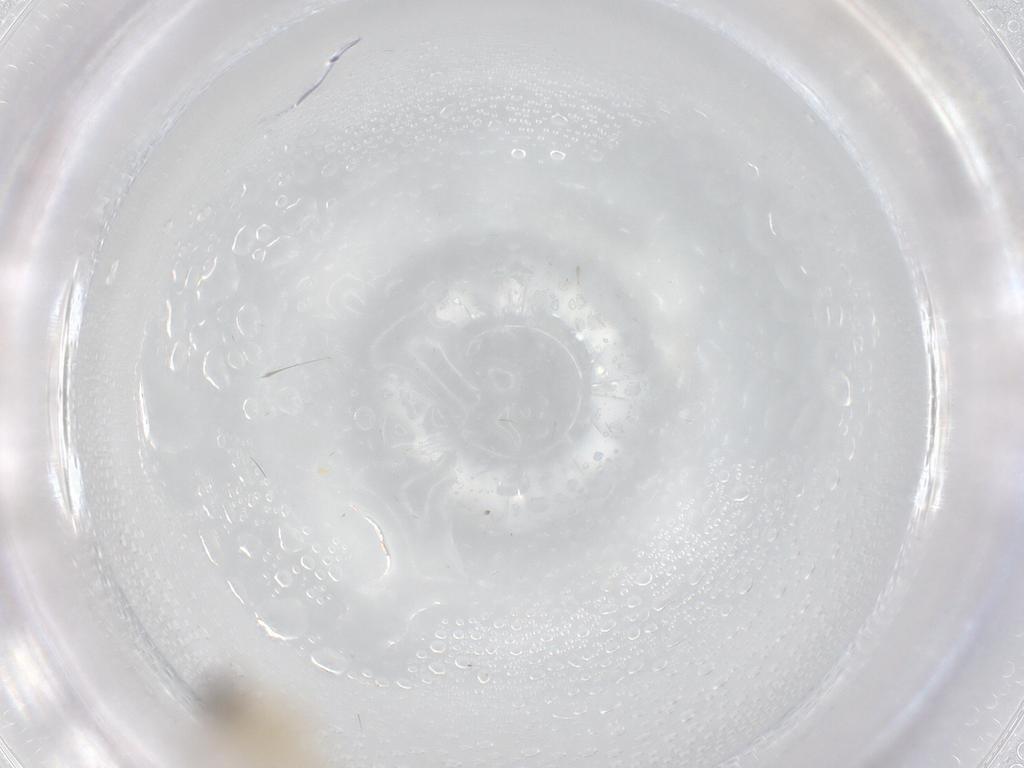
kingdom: Animalia
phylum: Arthropoda
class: Insecta
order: Diptera
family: Cecidomyiidae
